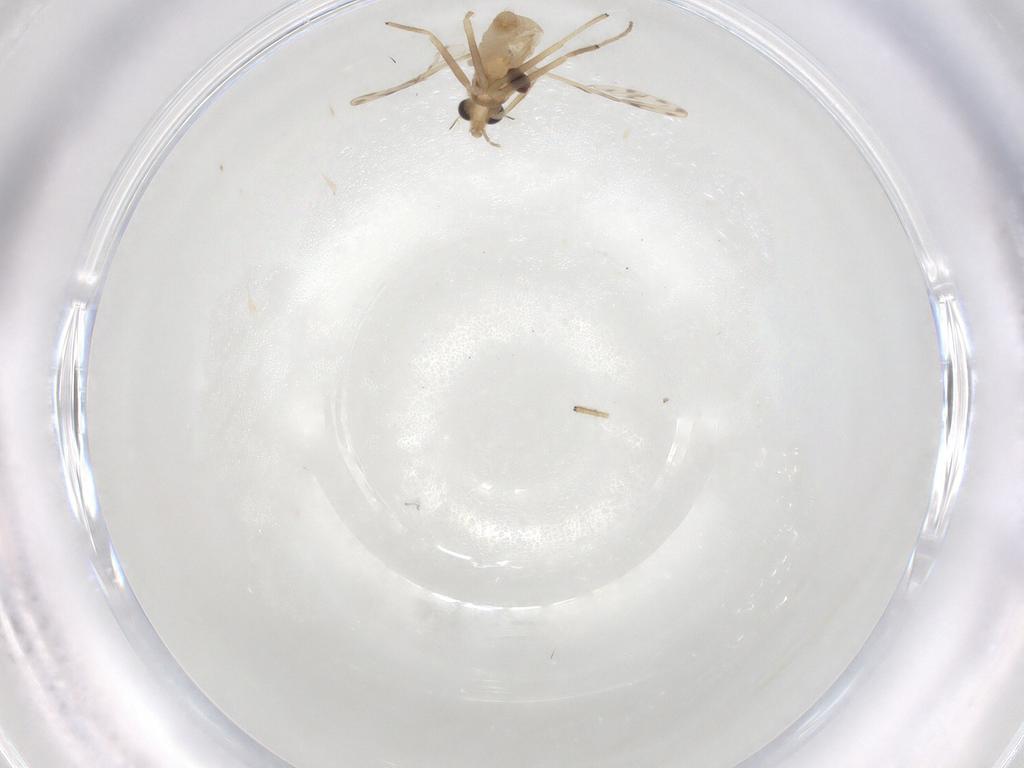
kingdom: Animalia
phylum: Arthropoda
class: Insecta
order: Diptera
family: Chironomidae
